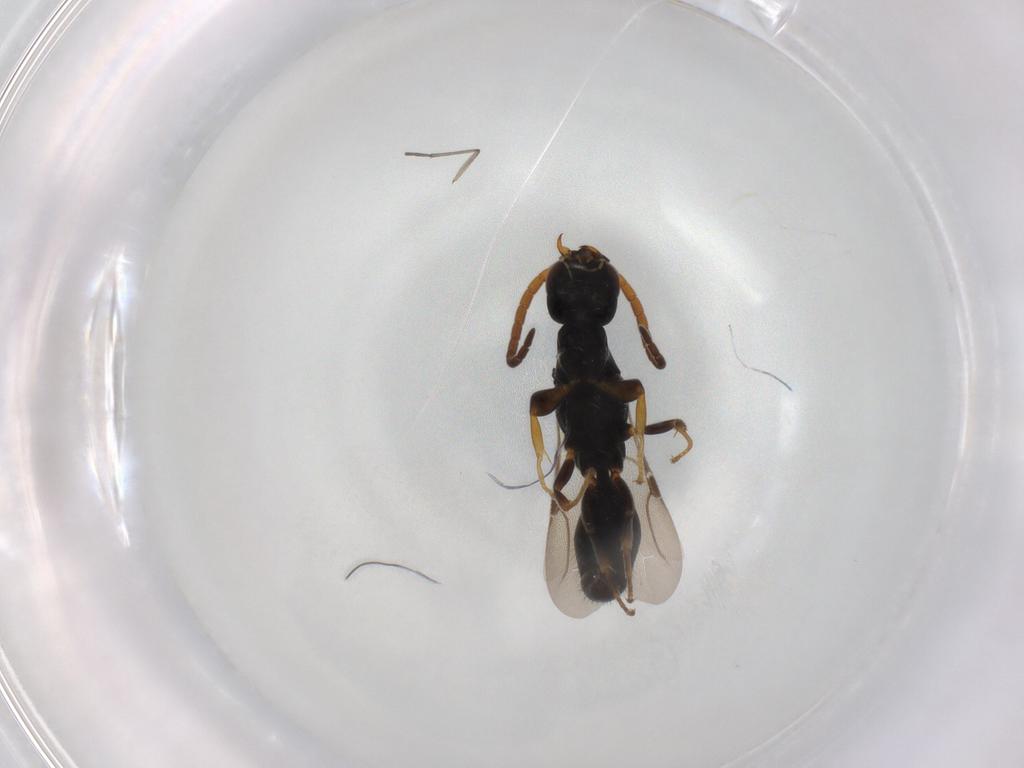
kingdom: Animalia
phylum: Arthropoda
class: Insecta
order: Hymenoptera
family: Bethylidae
